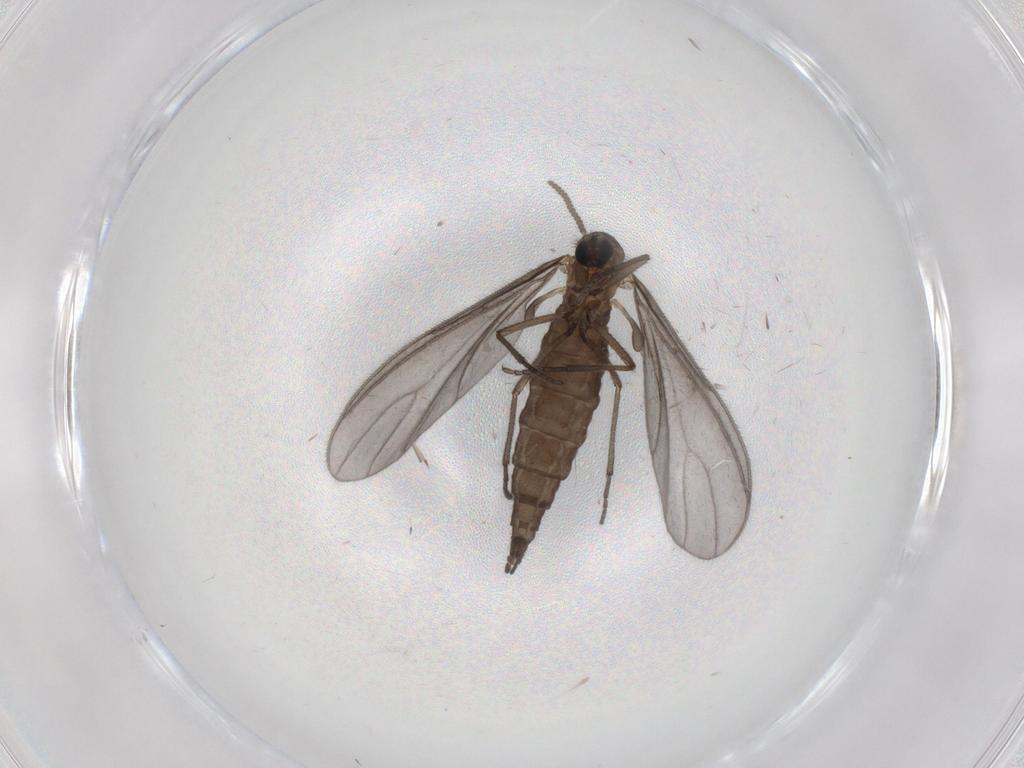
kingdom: Animalia
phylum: Arthropoda
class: Insecta
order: Diptera
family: Sciaridae
